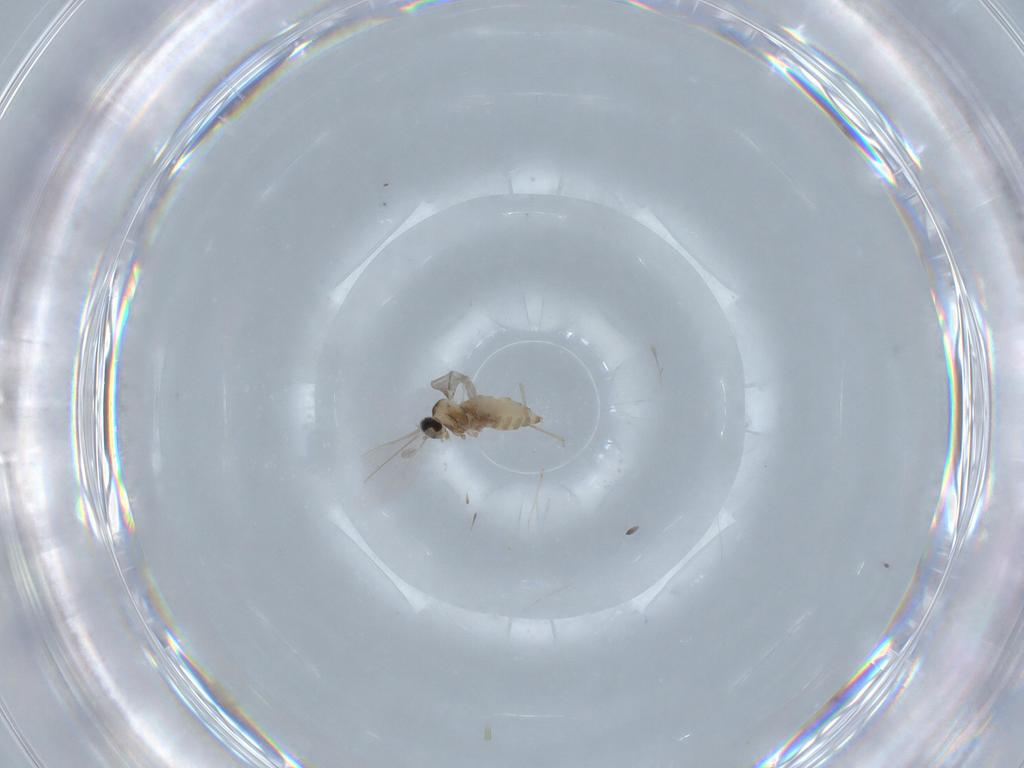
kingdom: Animalia
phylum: Arthropoda
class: Insecta
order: Diptera
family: Cecidomyiidae
